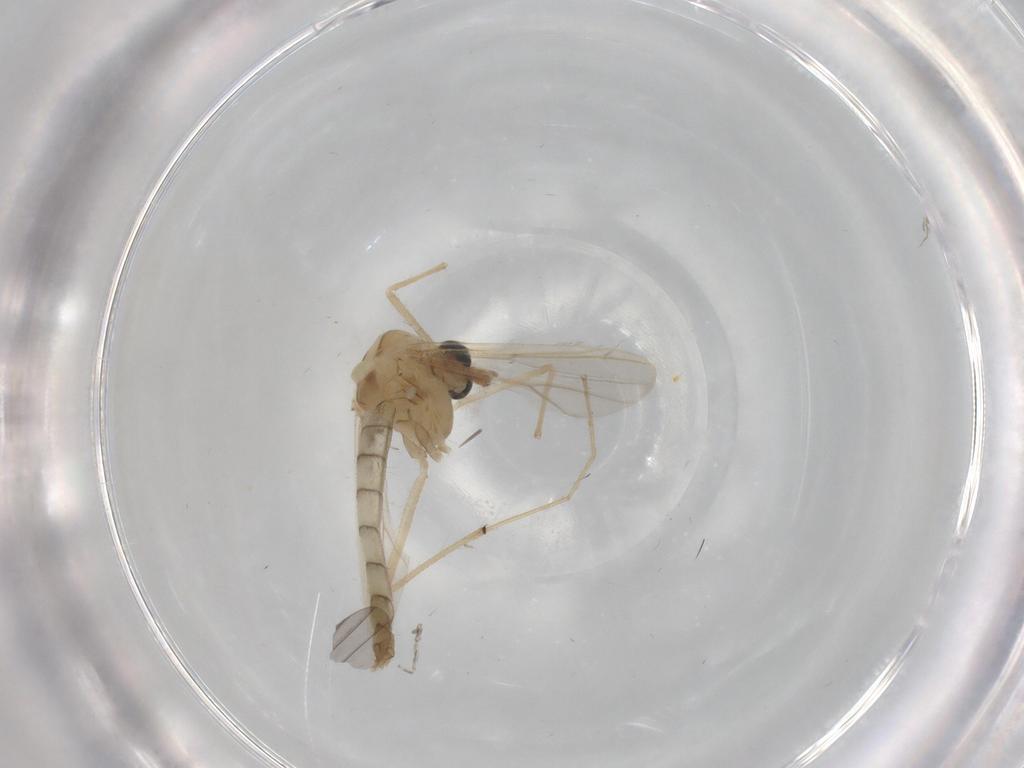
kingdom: Animalia
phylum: Arthropoda
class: Insecta
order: Diptera
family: Chironomidae
